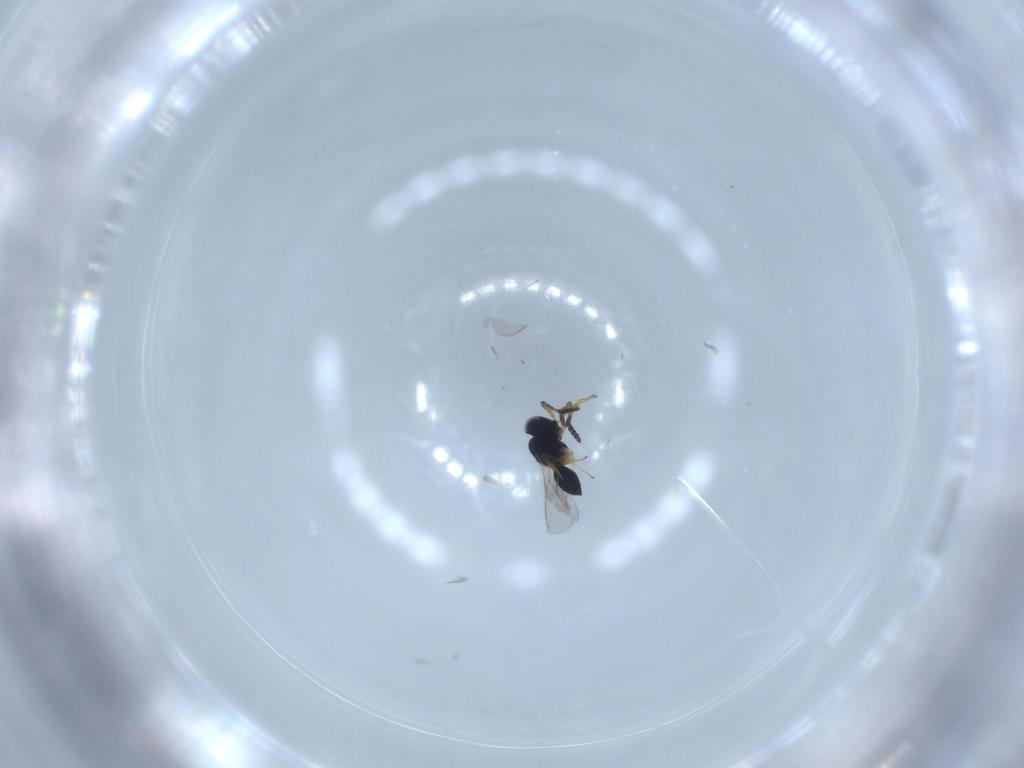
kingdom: Animalia
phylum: Arthropoda
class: Insecta
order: Hymenoptera
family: Scelionidae
